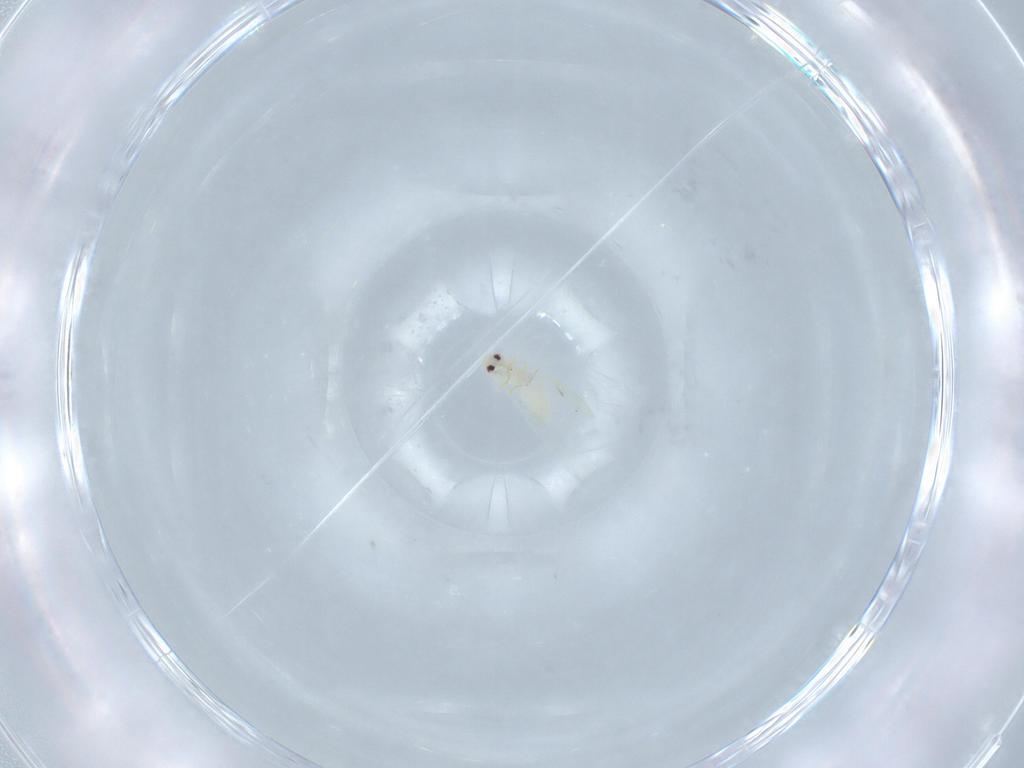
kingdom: Animalia
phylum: Arthropoda
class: Insecta
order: Hemiptera
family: Aleyrodidae
